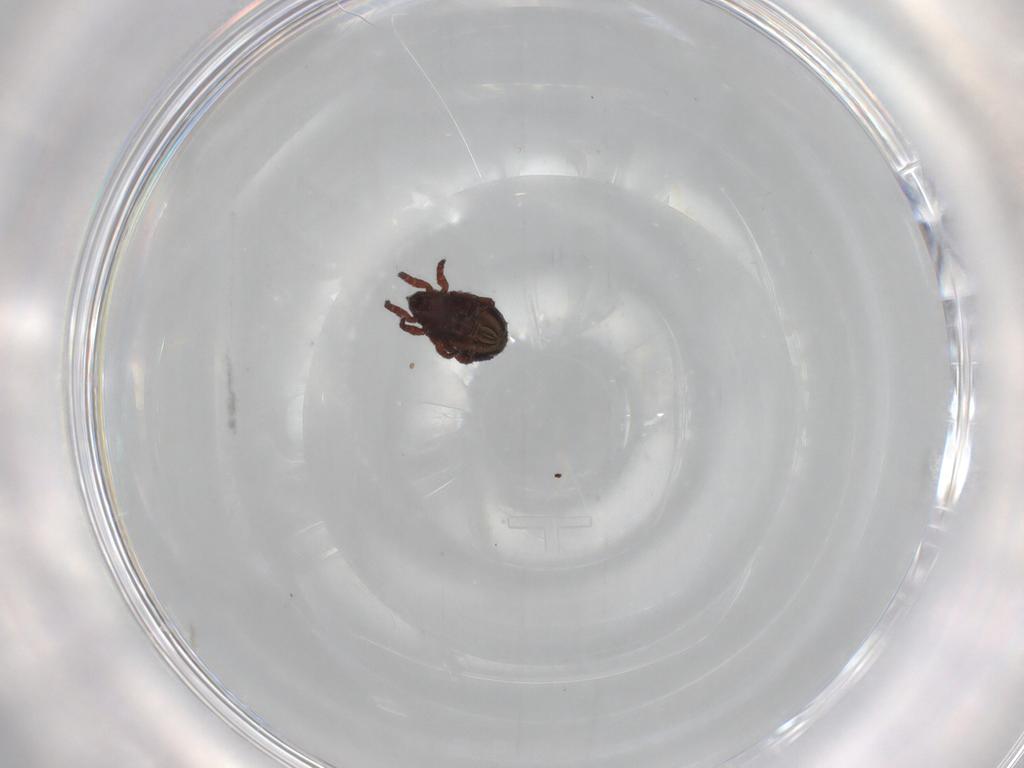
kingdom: Animalia
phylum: Arthropoda
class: Arachnida
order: Sarcoptiformes
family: Crotoniidae
